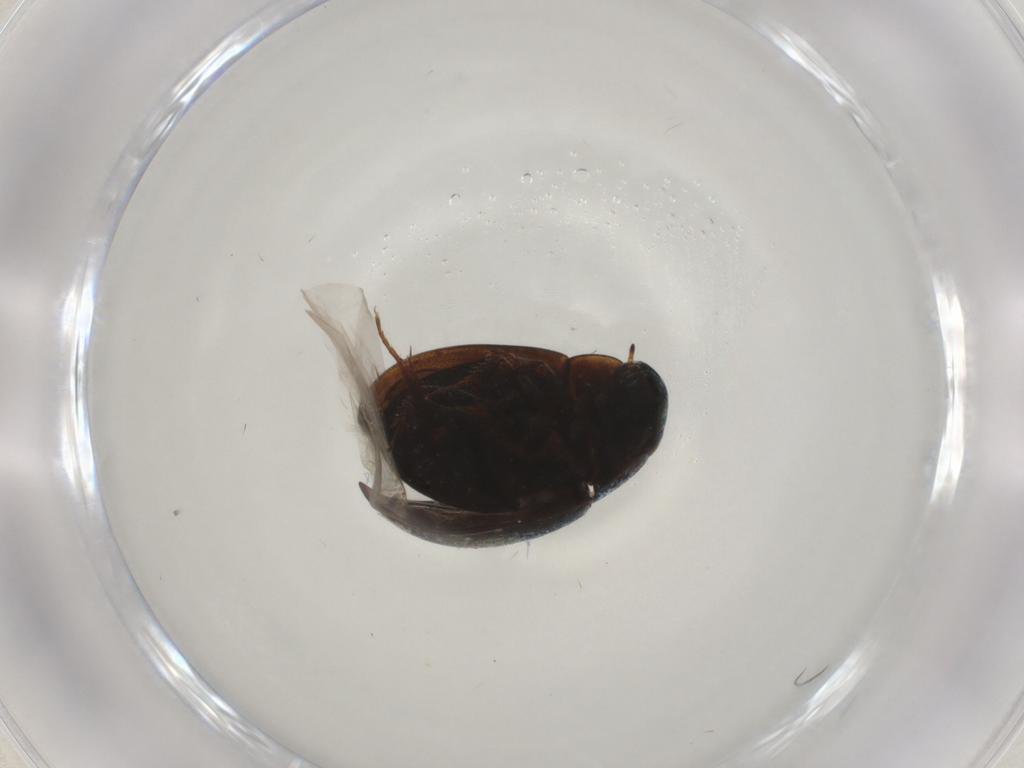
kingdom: Animalia
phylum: Arthropoda
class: Insecta
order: Coleoptera
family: Hydrophilidae
